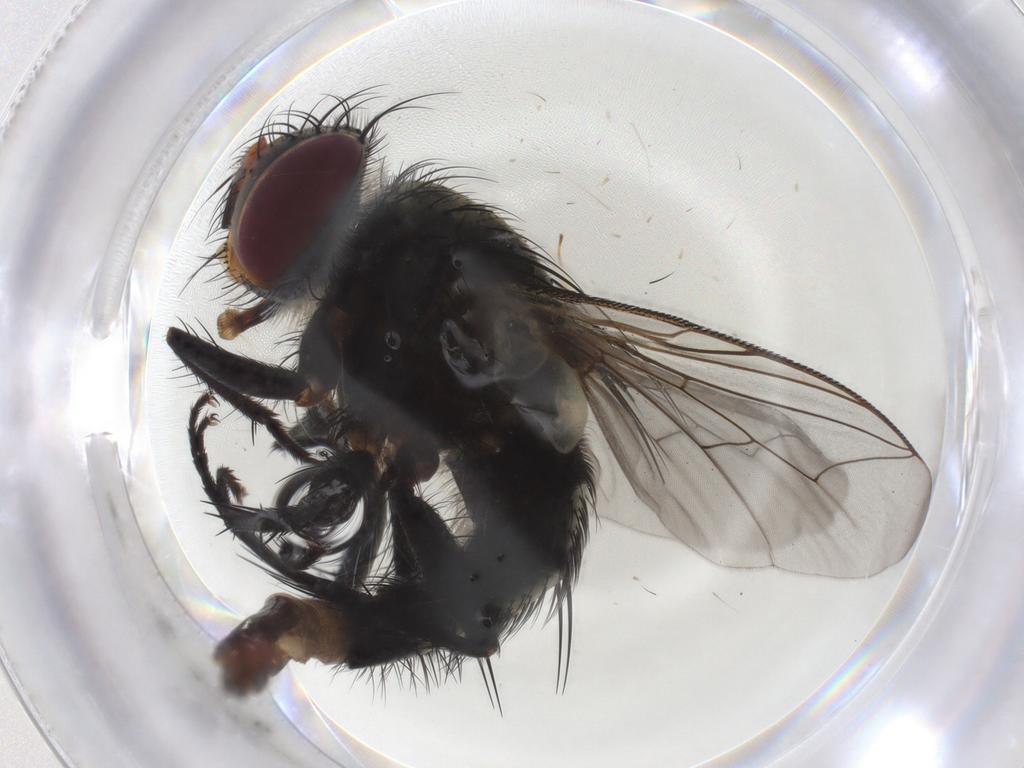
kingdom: Animalia
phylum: Arthropoda
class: Insecta
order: Diptera
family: Tachinidae
